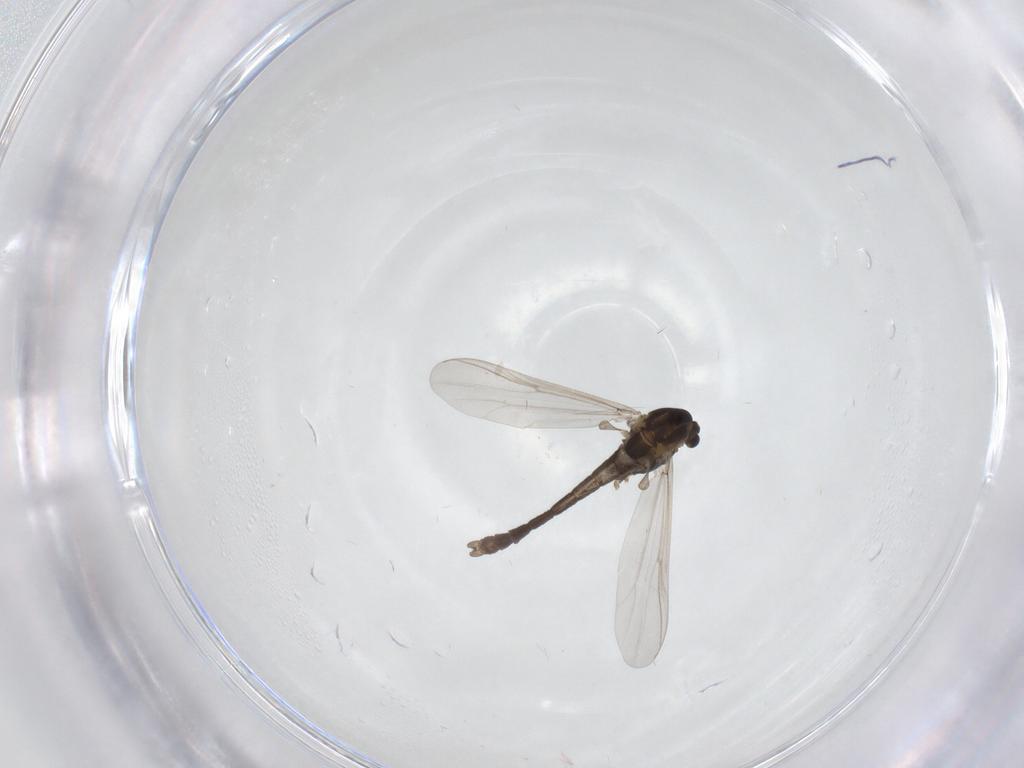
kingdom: Animalia
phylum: Arthropoda
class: Insecta
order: Diptera
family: Chironomidae
